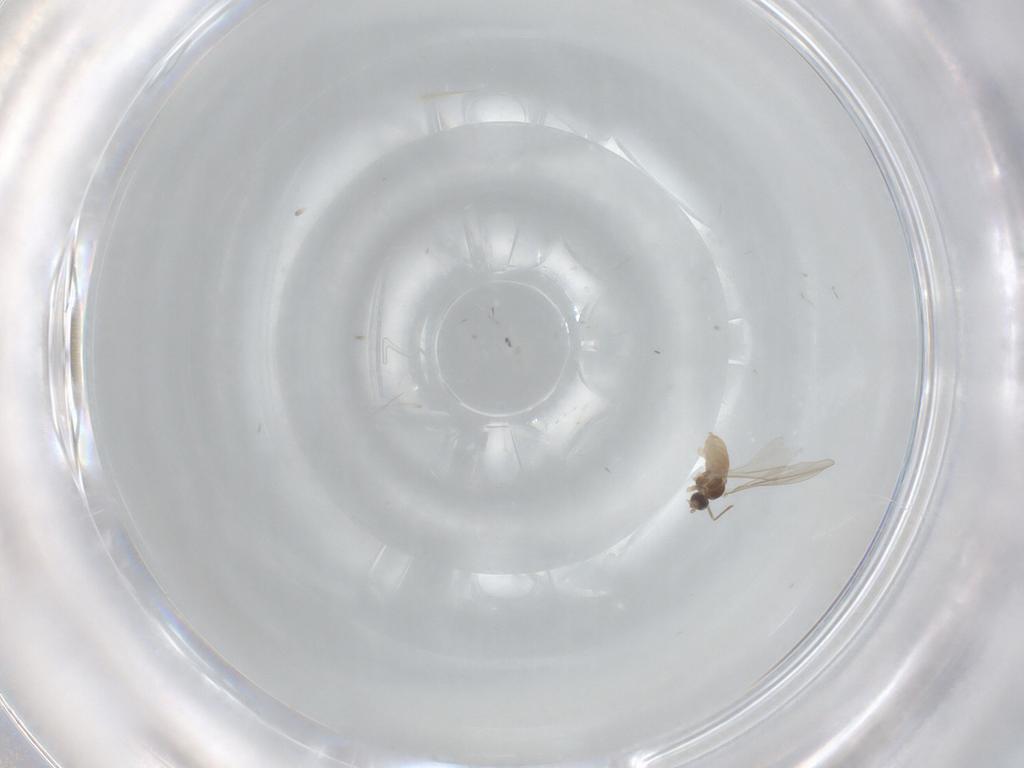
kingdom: Animalia
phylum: Arthropoda
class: Insecta
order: Diptera
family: Cecidomyiidae
